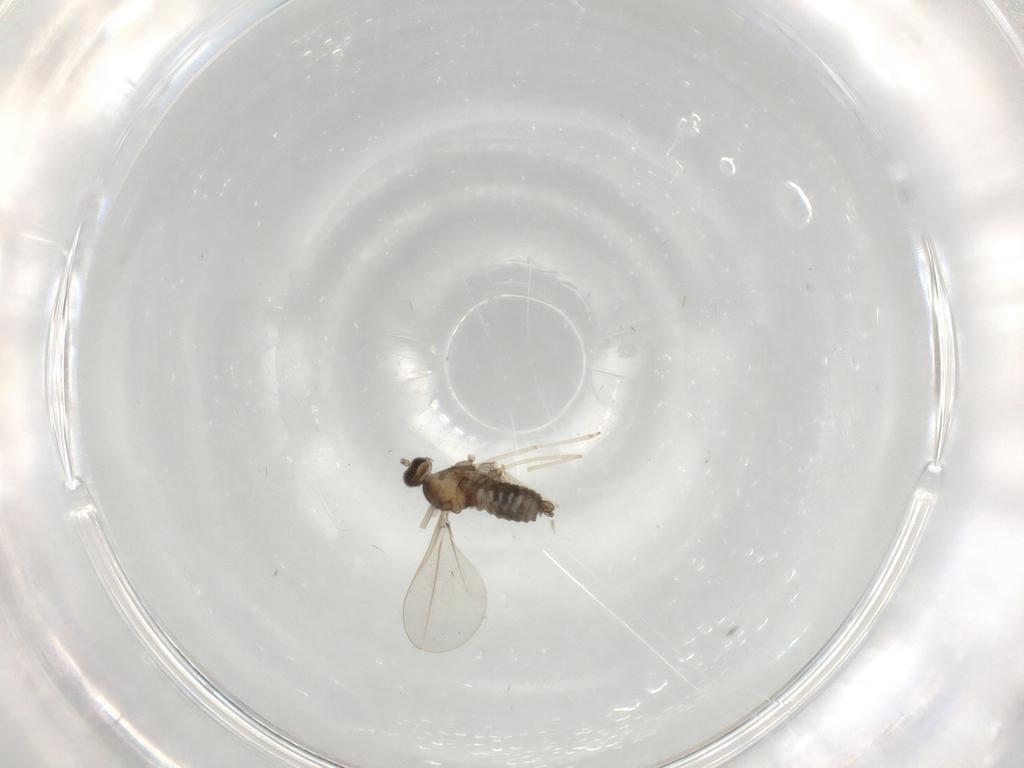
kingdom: Animalia
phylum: Arthropoda
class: Insecta
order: Diptera
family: Cecidomyiidae
